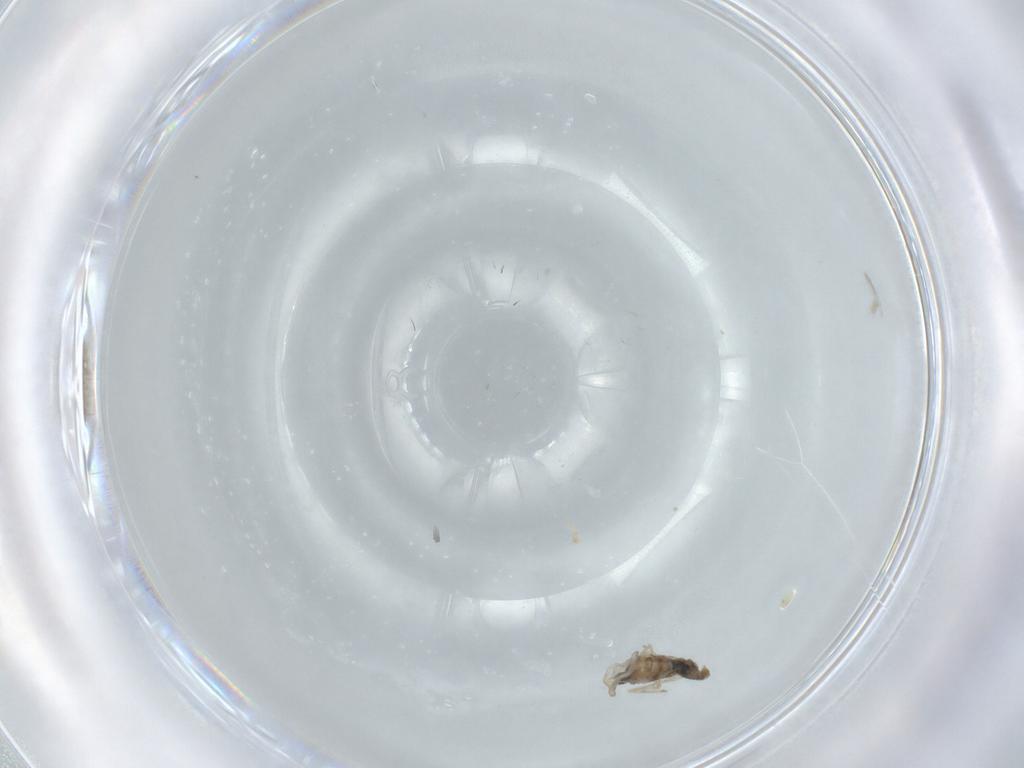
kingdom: Animalia
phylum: Arthropoda
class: Insecta
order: Diptera
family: Cecidomyiidae
